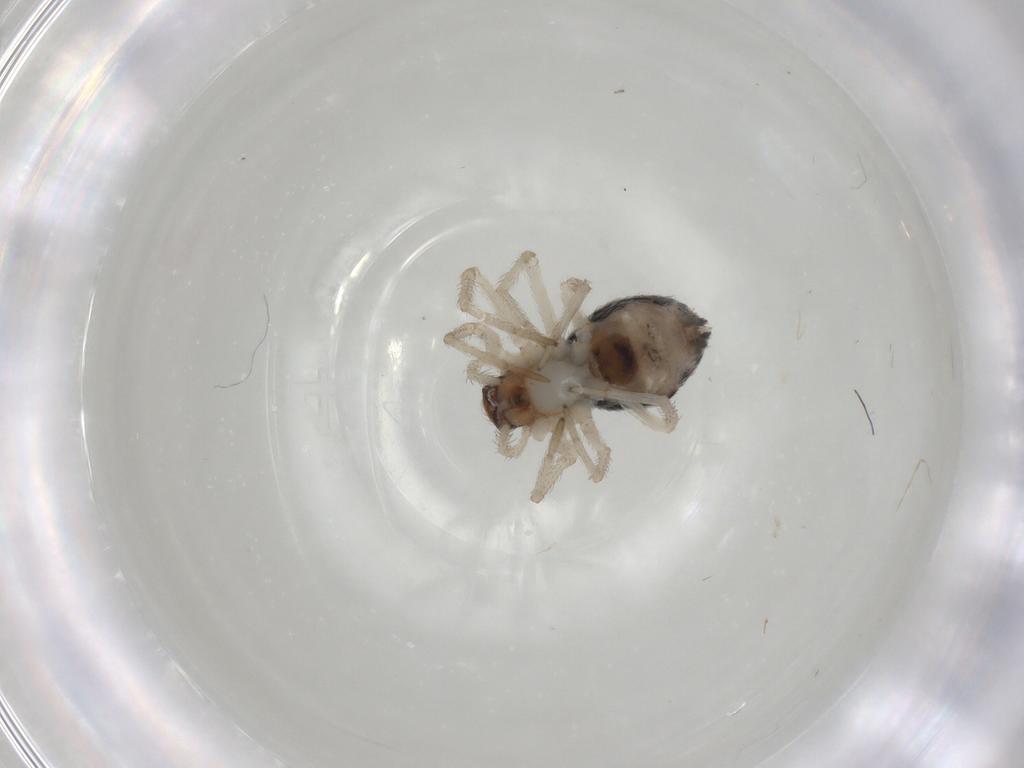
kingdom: Animalia
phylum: Arthropoda
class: Arachnida
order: Araneae
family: Dictynidae
